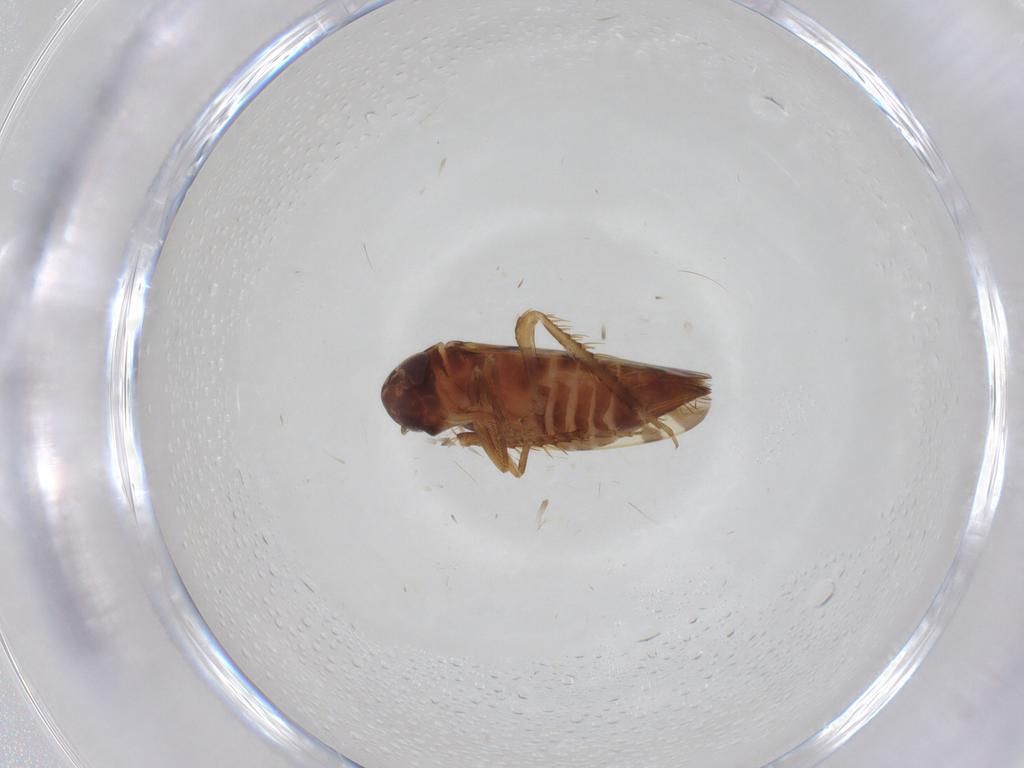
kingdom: Animalia
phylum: Arthropoda
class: Insecta
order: Hemiptera
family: Cicadellidae
